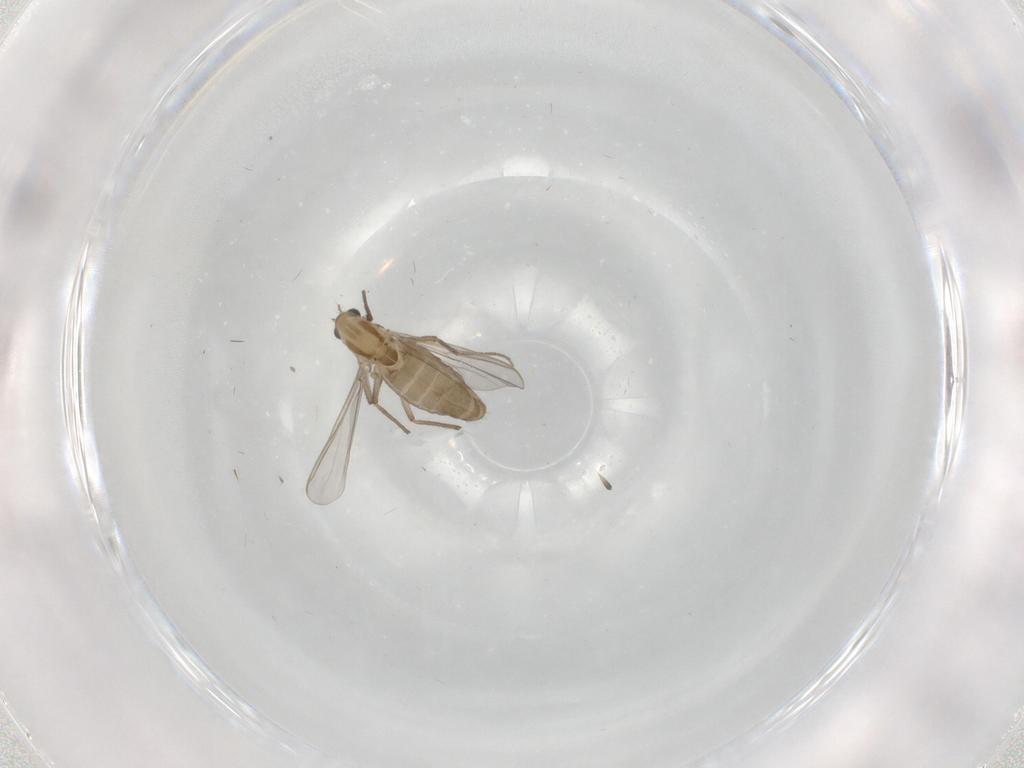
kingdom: Animalia
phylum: Arthropoda
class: Insecta
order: Diptera
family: Chironomidae
